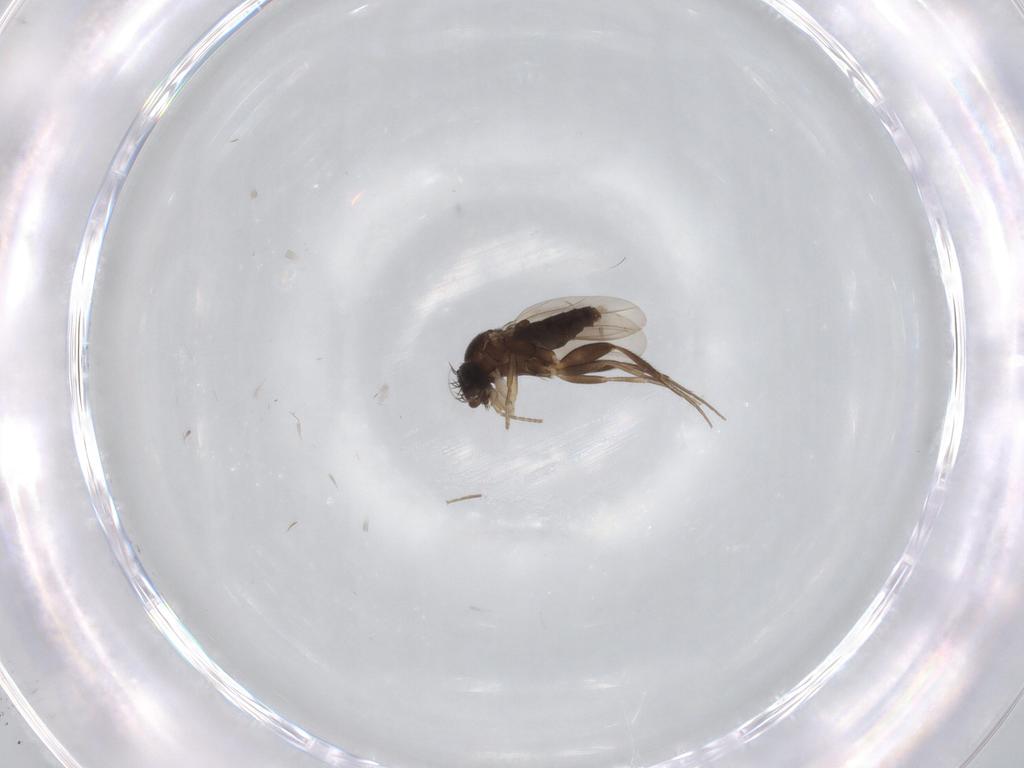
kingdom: Animalia
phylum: Arthropoda
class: Insecta
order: Diptera
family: Phoridae
